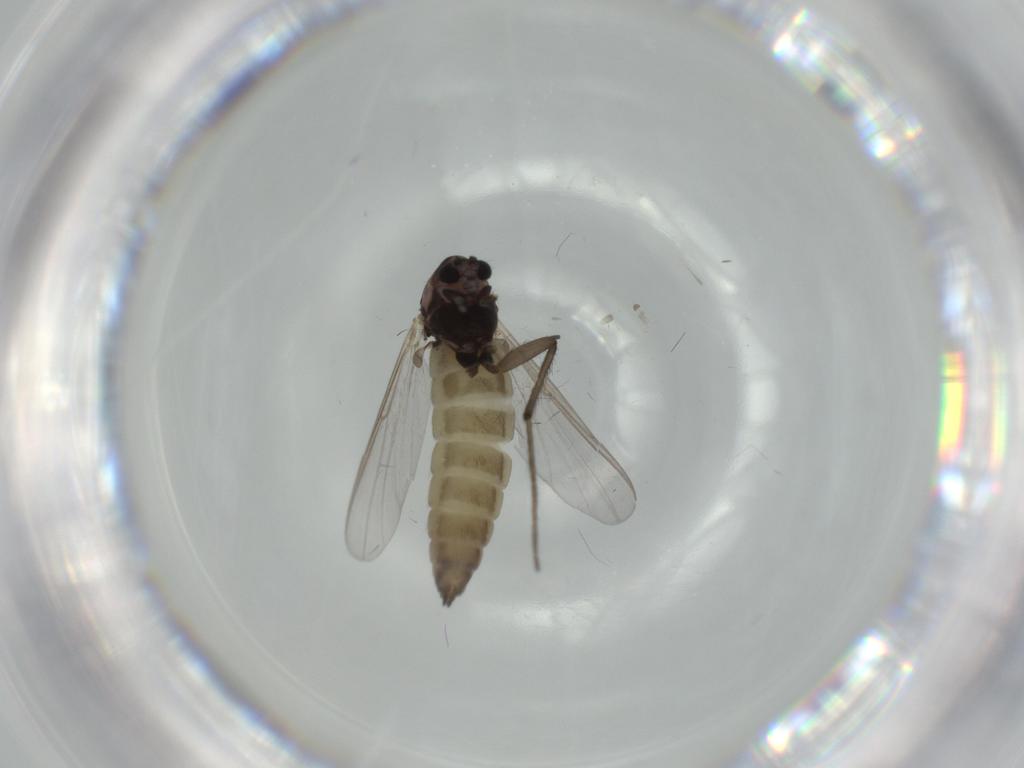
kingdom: Animalia
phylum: Arthropoda
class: Insecta
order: Diptera
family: Chironomidae
